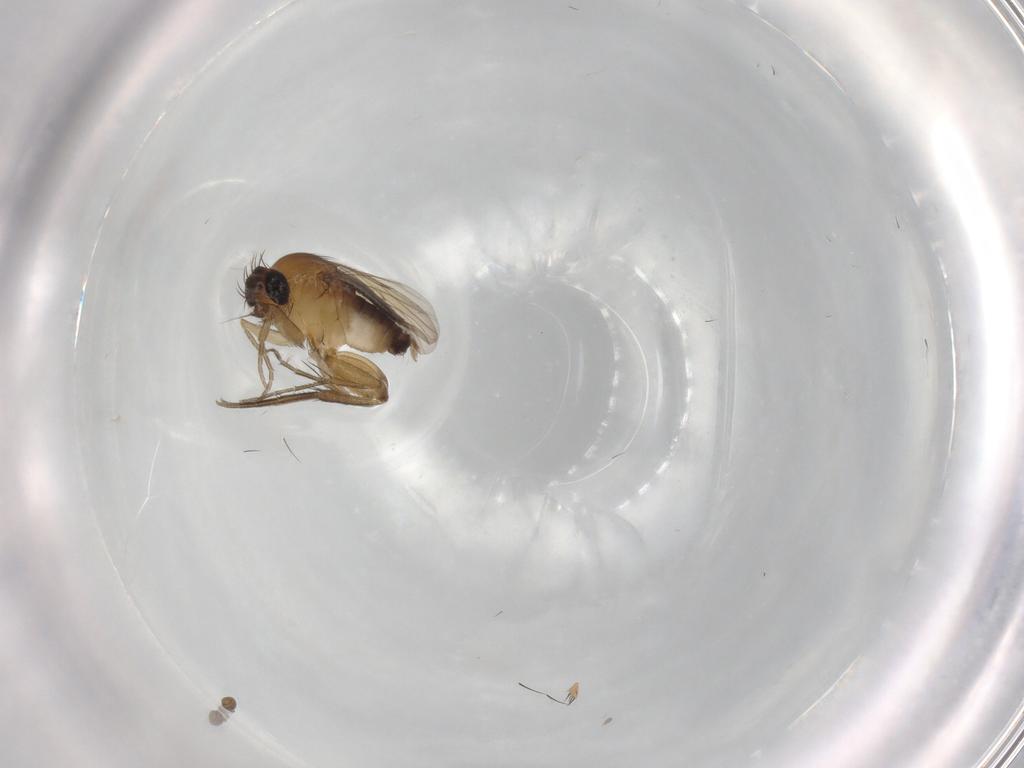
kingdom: Animalia
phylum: Arthropoda
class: Insecta
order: Diptera
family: Phoridae
